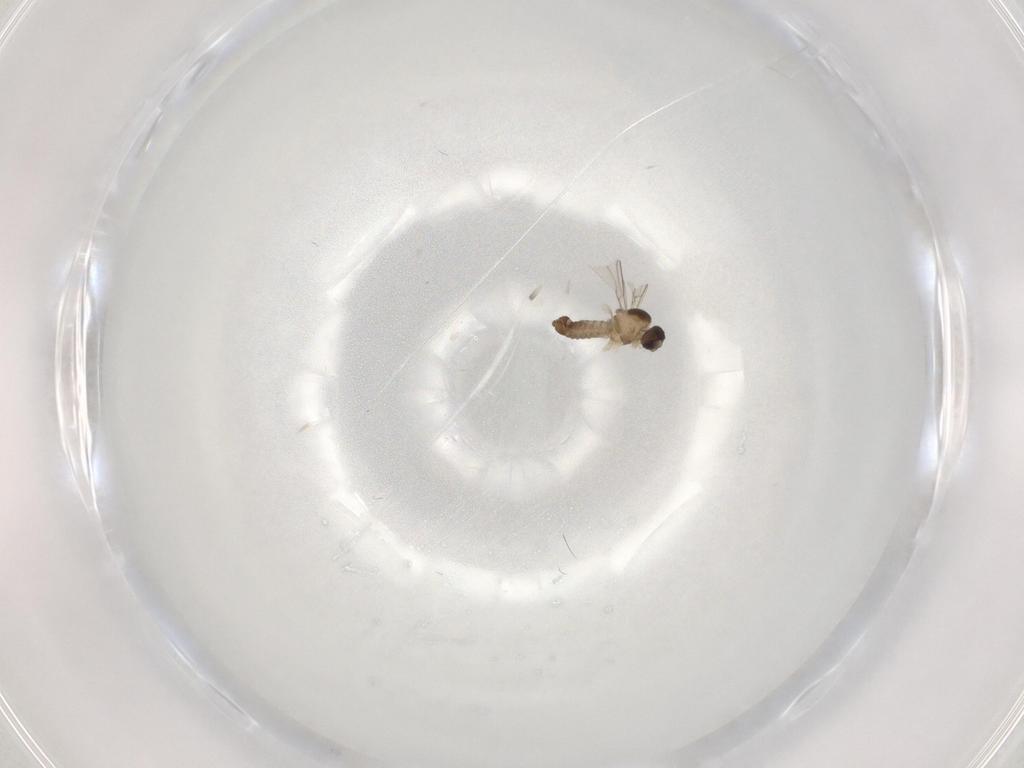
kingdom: Animalia
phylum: Arthropoda
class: Insecta
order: Diptera
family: Cecidomyiidae
